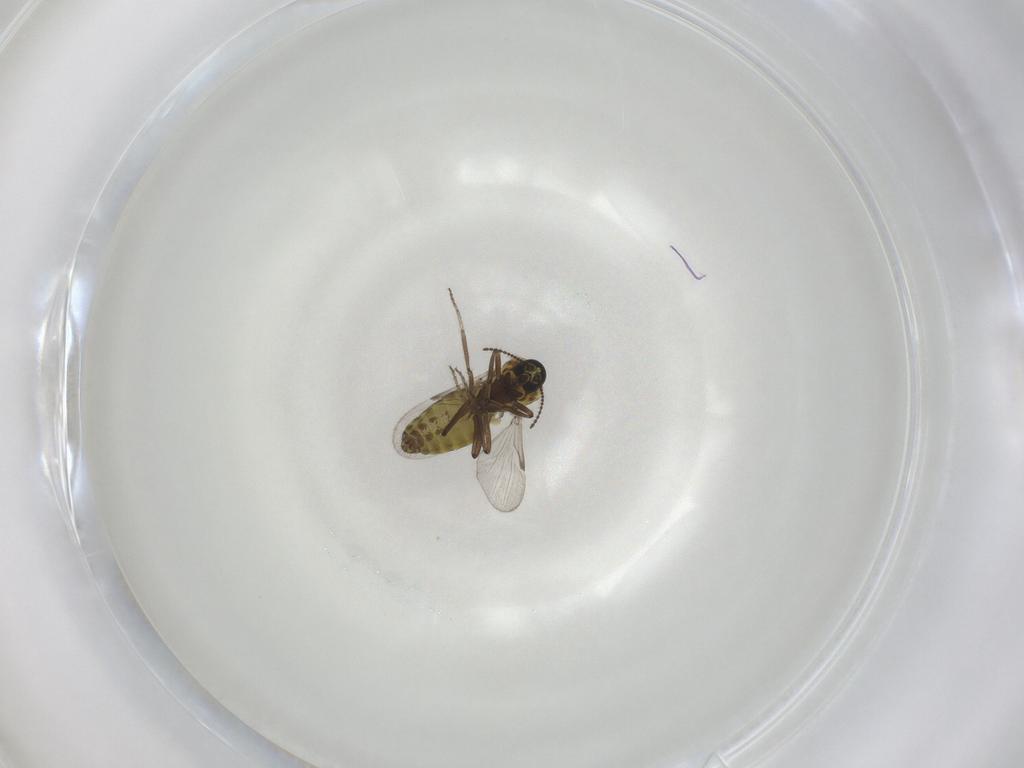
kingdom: Animalia
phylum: Arthropoda
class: Insecta
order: Diptera
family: Ceratopogonidae
